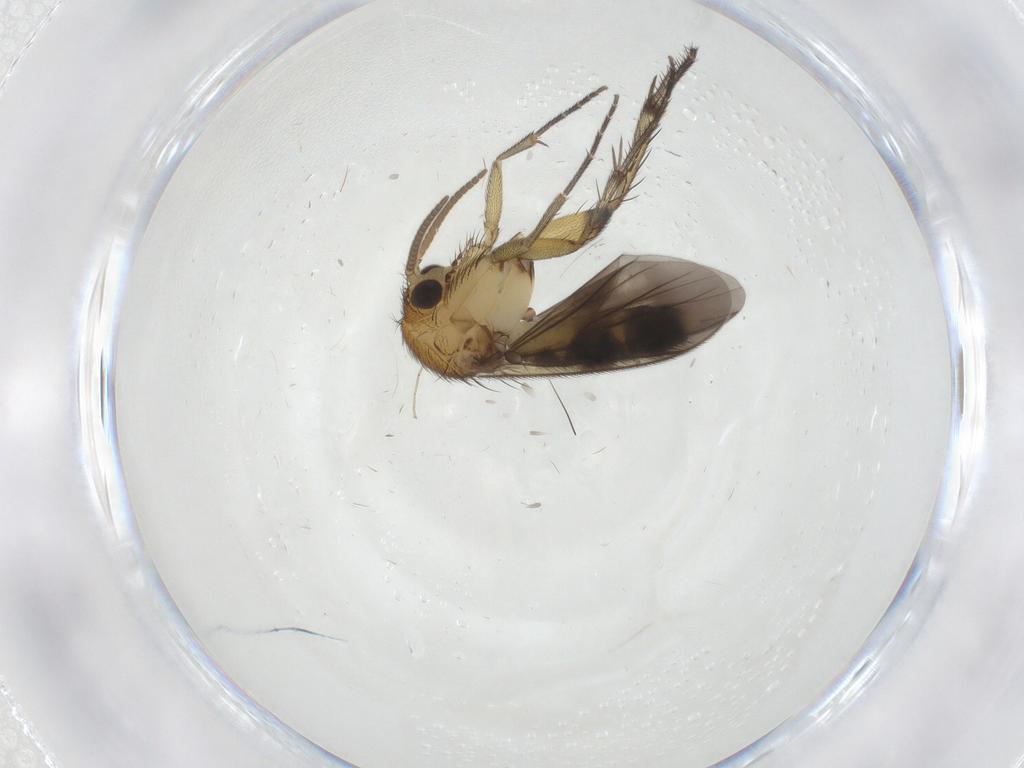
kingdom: Animalia
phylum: Arthropoda
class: Insecta
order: Diptera
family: Mycetophilidae
